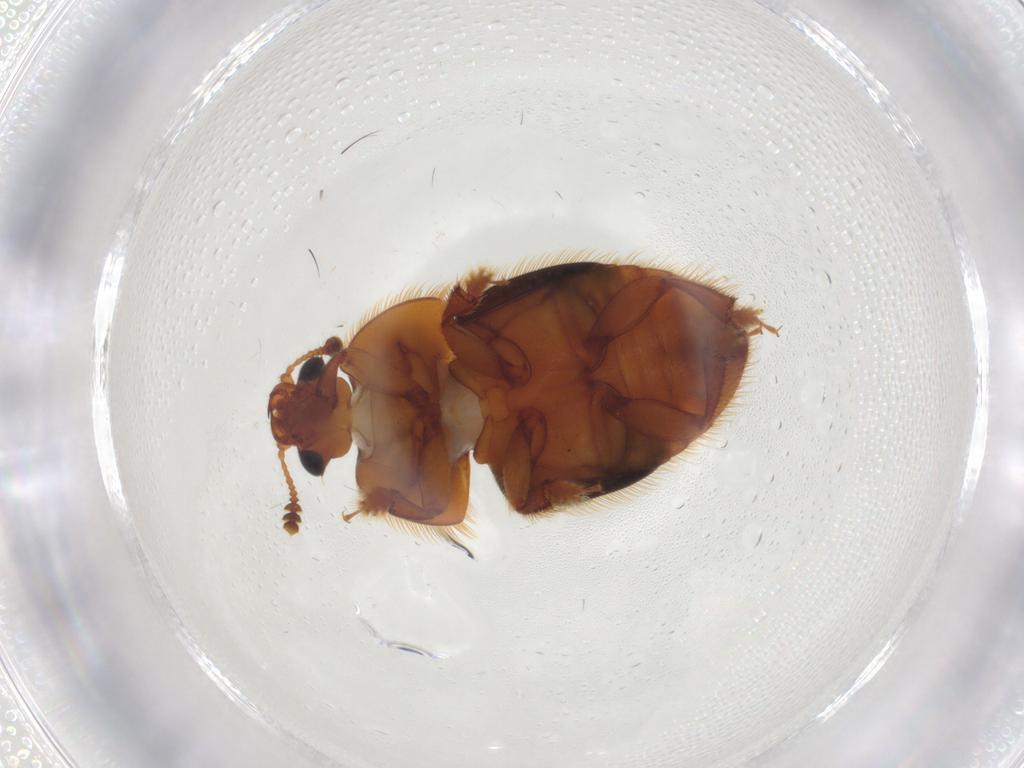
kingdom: Animalia
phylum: Arthropoda
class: Insecta
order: Coleoptera
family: Nitidulidae
